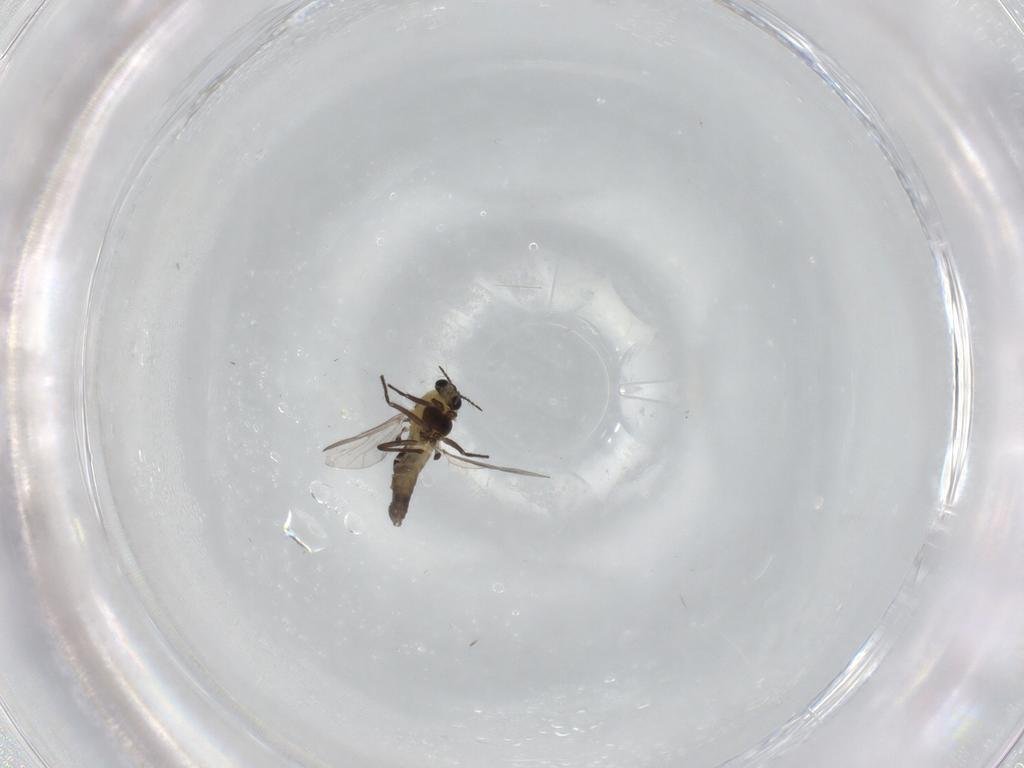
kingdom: Animalia
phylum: Arthropoda
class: Insecta
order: Diptera
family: Chironomidae
